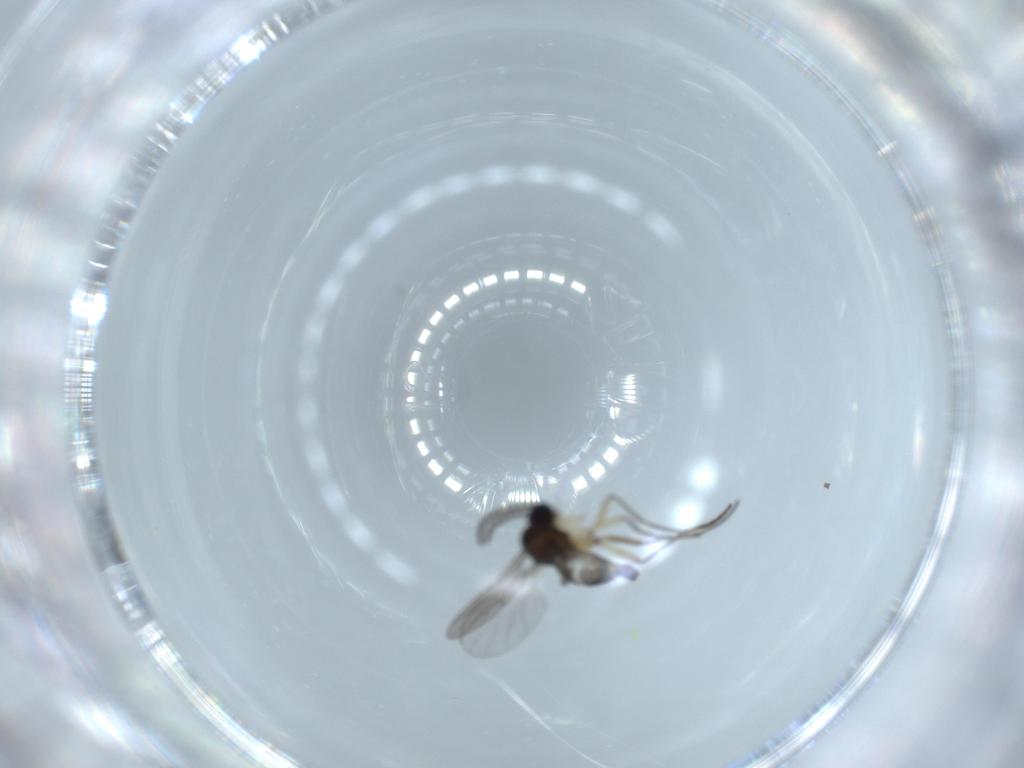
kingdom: Animalia
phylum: Arthropoda
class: Insecta
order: Diptera
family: Sciaridae
